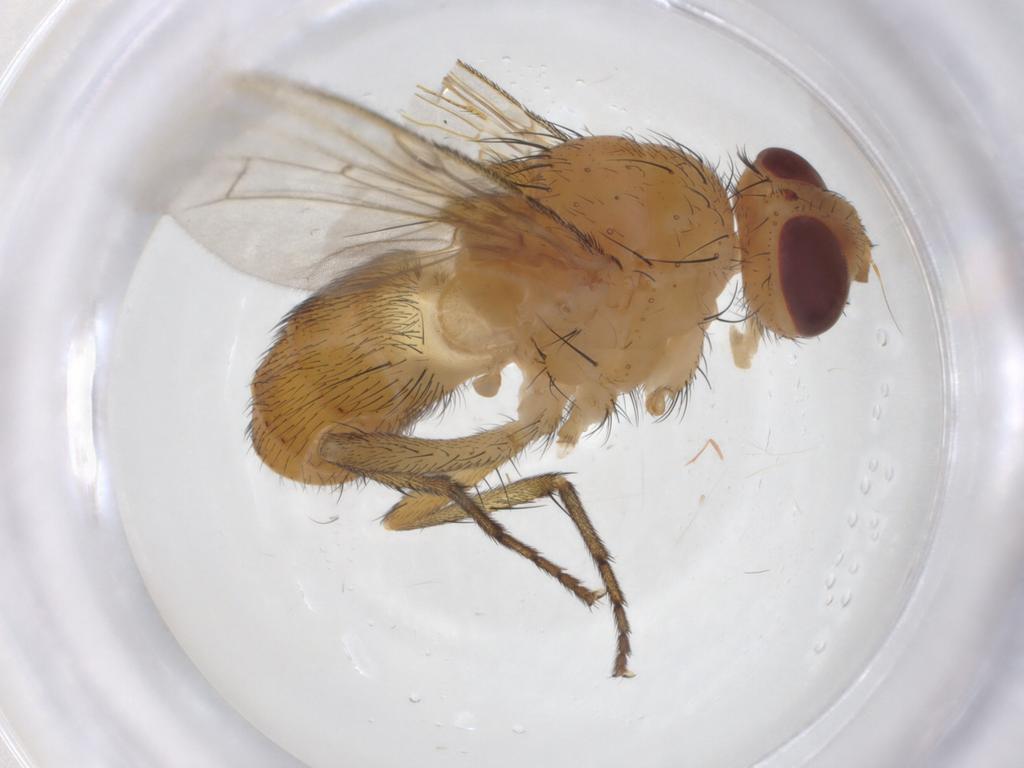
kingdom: Animalia
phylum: Arthropoda
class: Insecta
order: Diptera
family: Tachinidae
